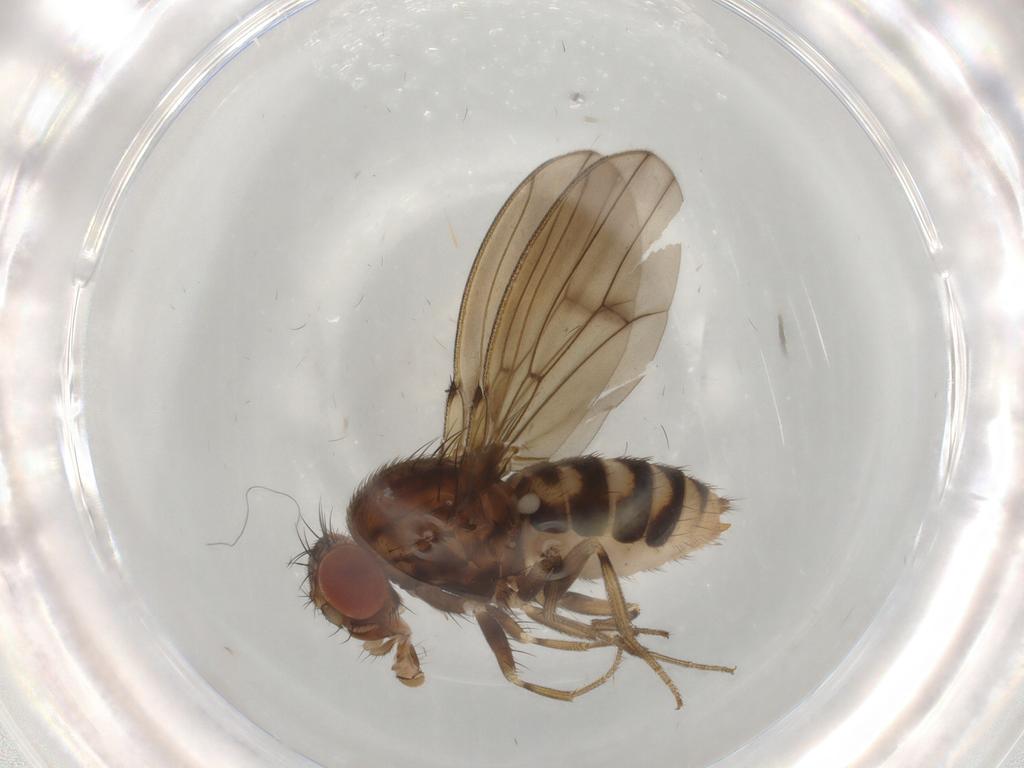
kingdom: Animalia
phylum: Arthropoda
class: Insecta
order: Diptera
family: Drosophilidae
